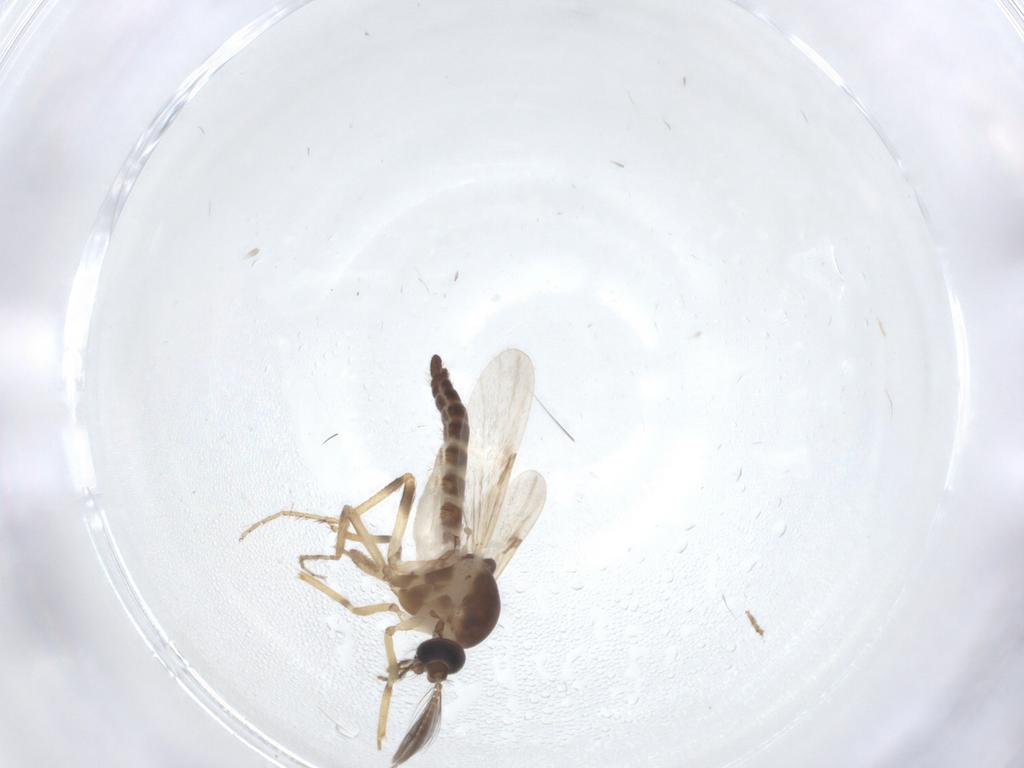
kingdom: Animalia
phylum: Arthropoda
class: Insecta
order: Diptera
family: Ceratopogonidae
